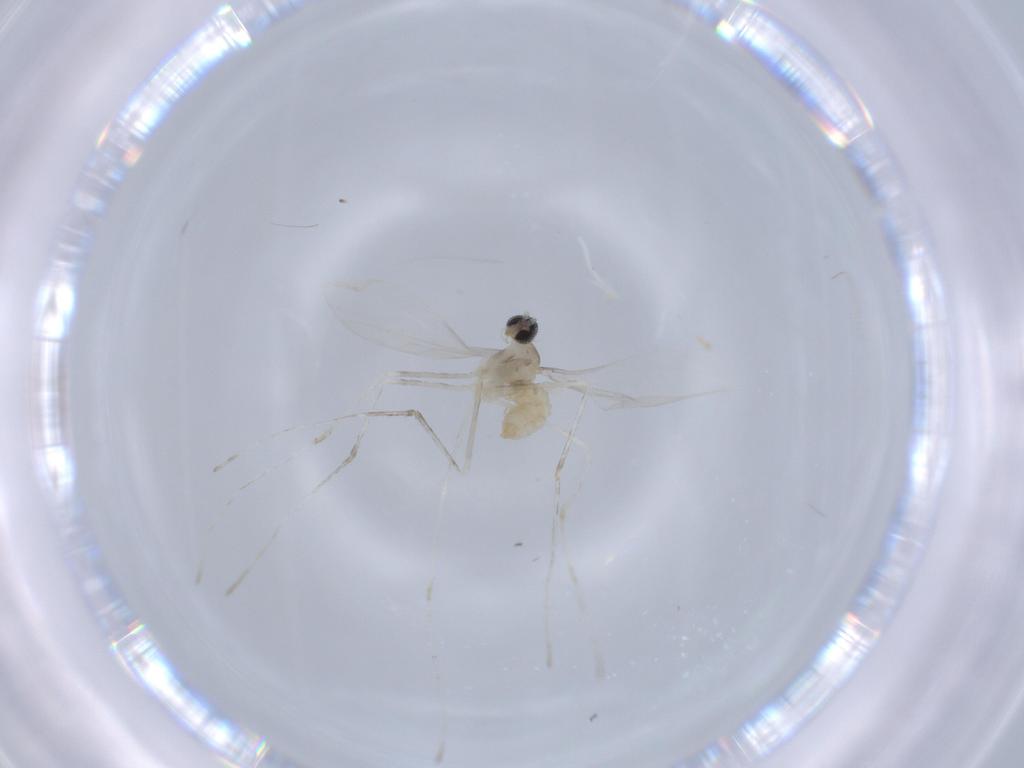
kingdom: Animalia
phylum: Arthropoda
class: Insecta
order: Diptera
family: Cecidomyiidae
